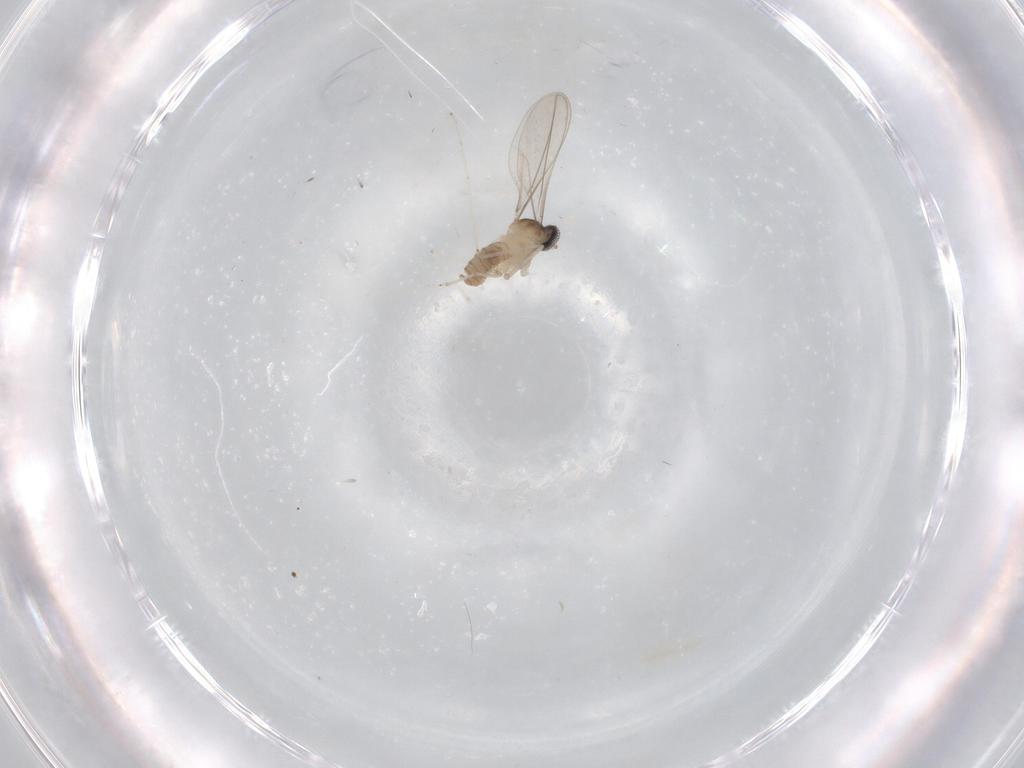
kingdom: Animalia
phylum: Arthropoda
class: Insecta
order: Diptera
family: Cecidomyiidae
